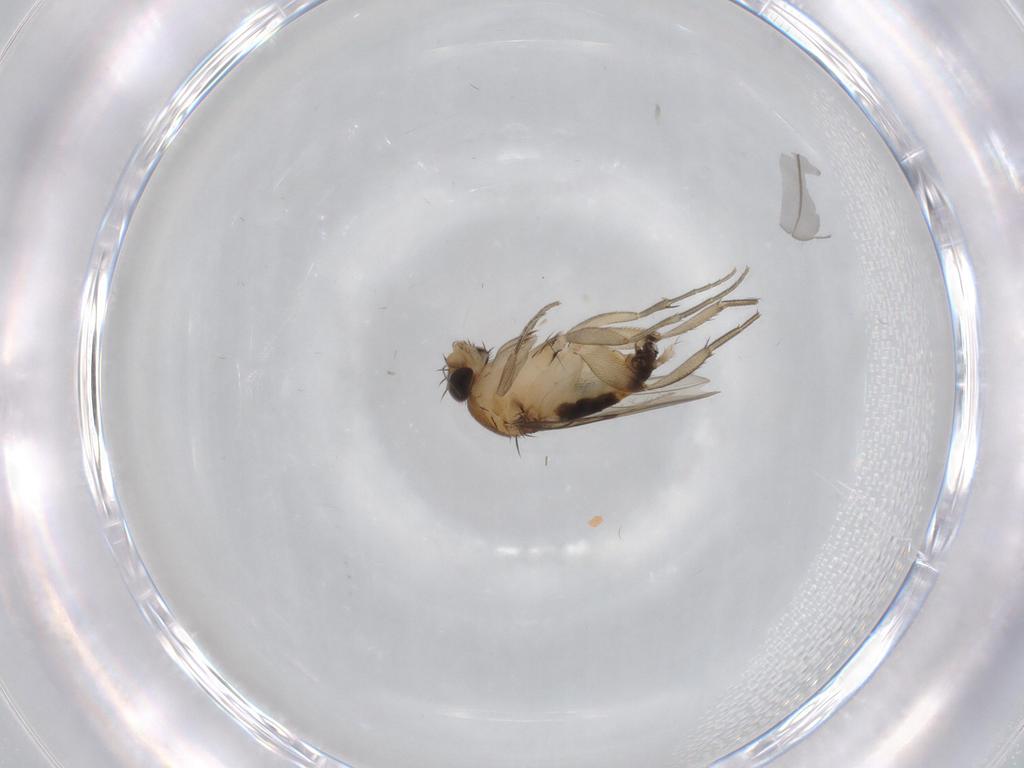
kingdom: Animalia
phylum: Arthropoda
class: Insecta
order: Diptera
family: Phoridae
